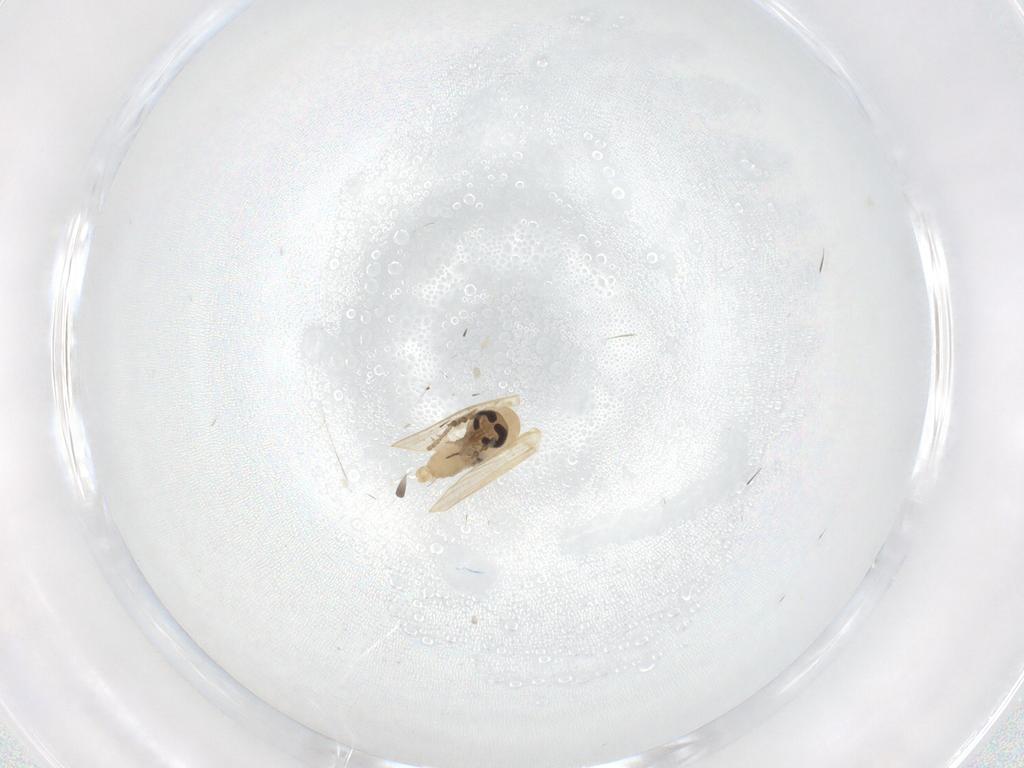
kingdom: Animalia
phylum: Arthropoda
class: Insecta
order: Diptera
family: Psychodidae
